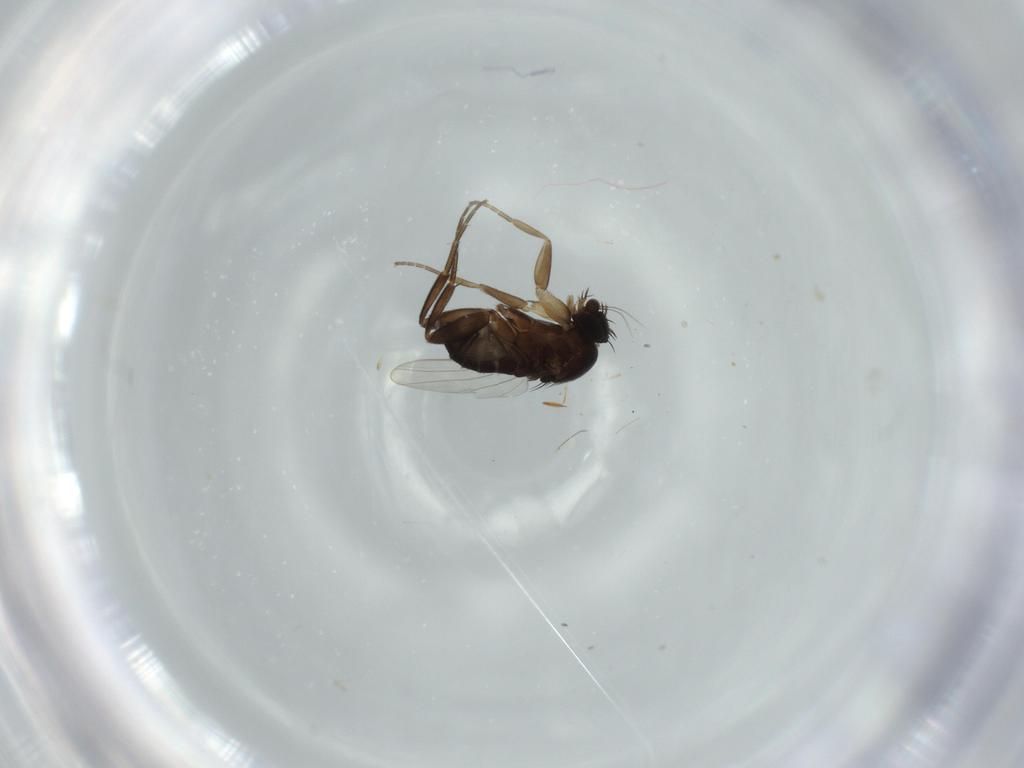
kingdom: Animalia
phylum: Arthropoda
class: Insecta
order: Diptera
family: Phoridae
